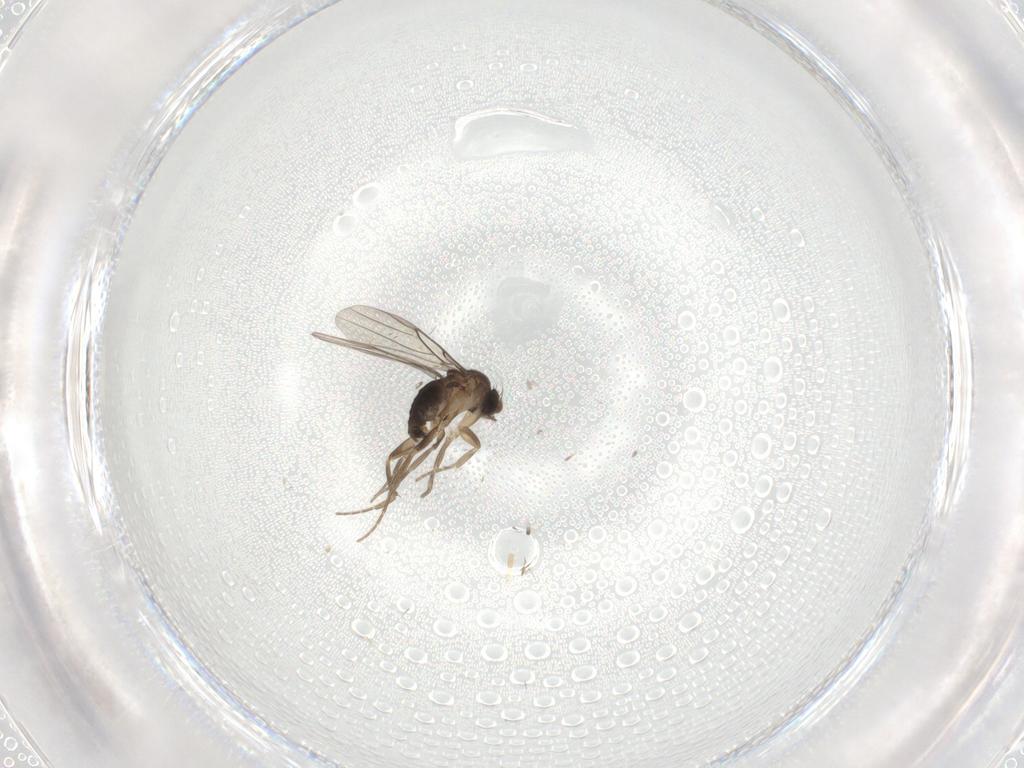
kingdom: Animalia
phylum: Arthropoda
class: Insecta
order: Diptera
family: Phoridae
